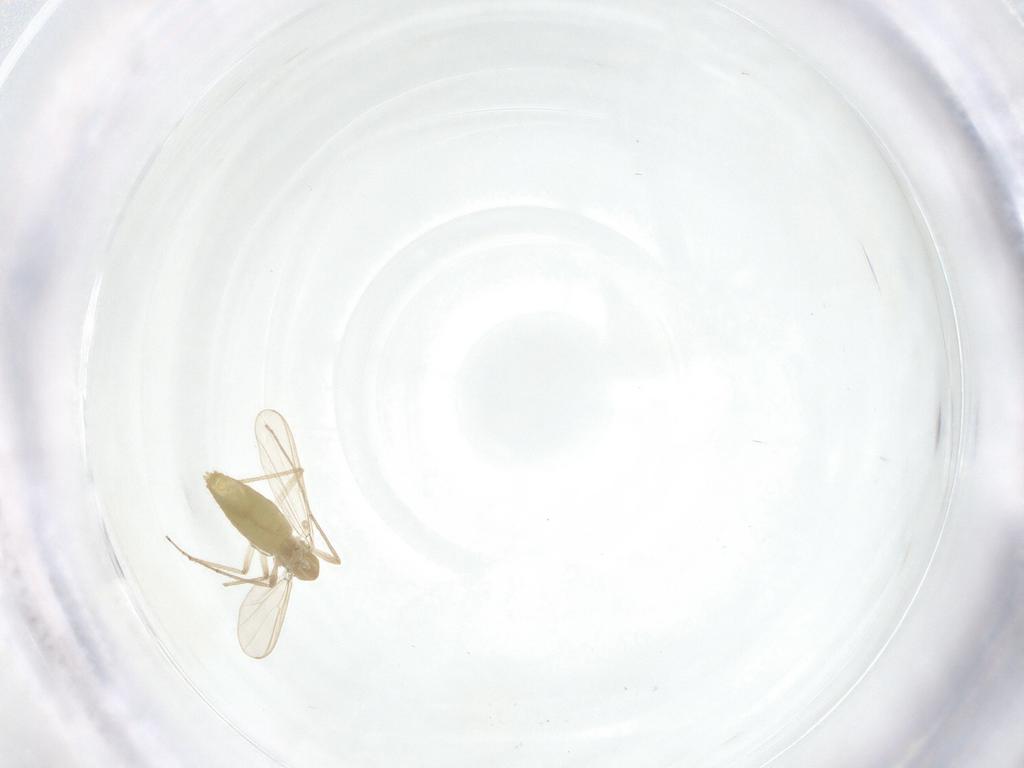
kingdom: Animalia
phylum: Arthropoda
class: Insecta
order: Diptera
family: Chironomidae
